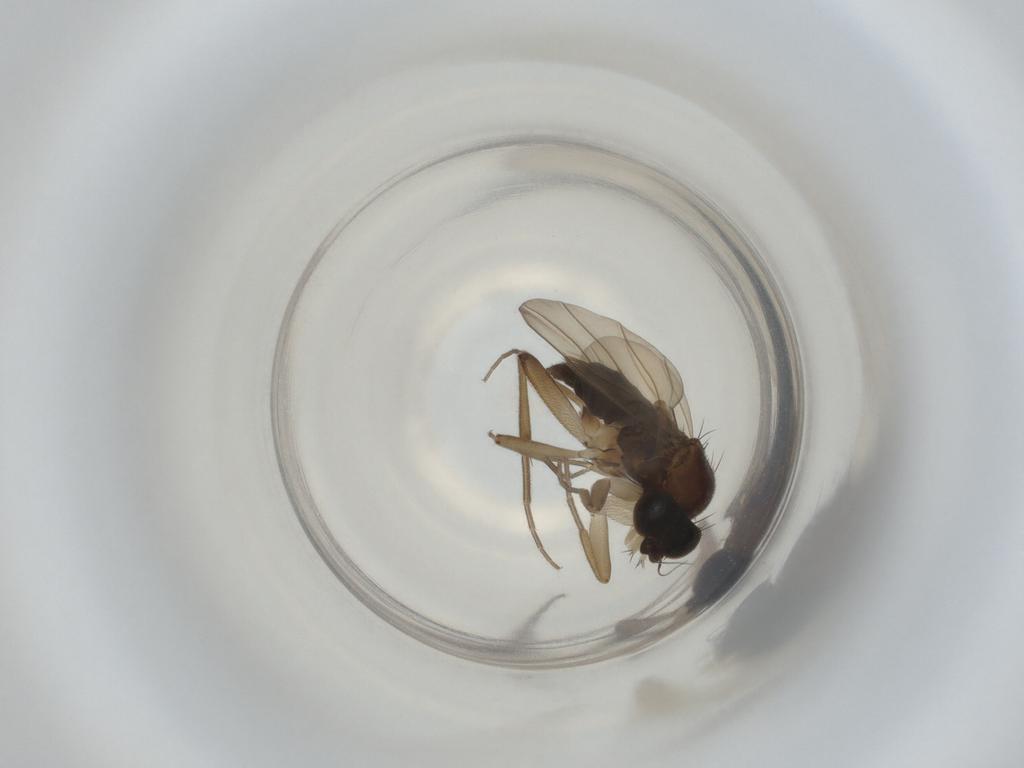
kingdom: Animalia
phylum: Arthropoda
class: Insecta
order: Diptera
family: Phoridae
